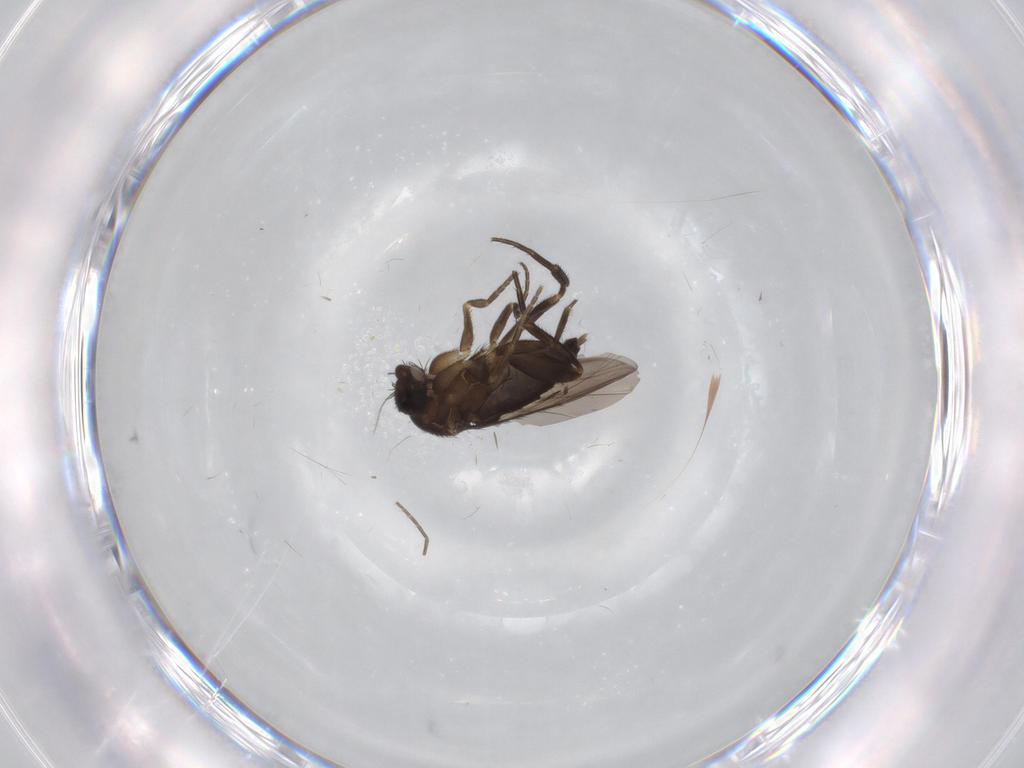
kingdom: Animalia
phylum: Arthropoda
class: Insecta
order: Diptera
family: Phoridae
